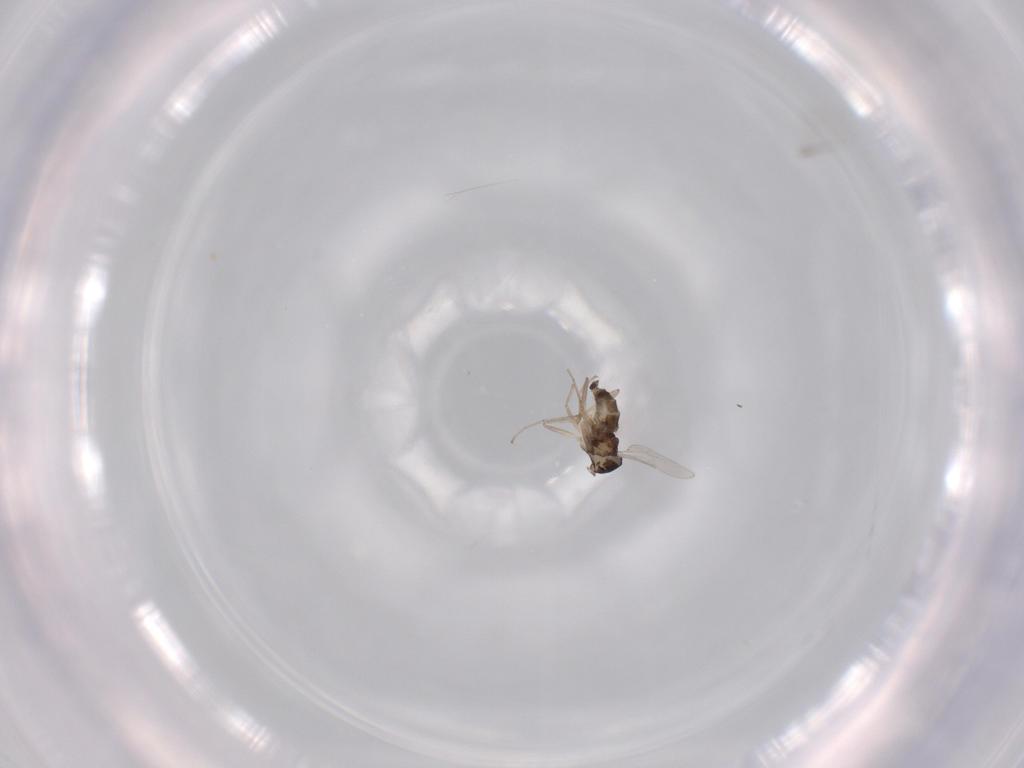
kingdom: Animalia
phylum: Arthropoda
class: Insecta
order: Diptera
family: Cecidomyiidae
